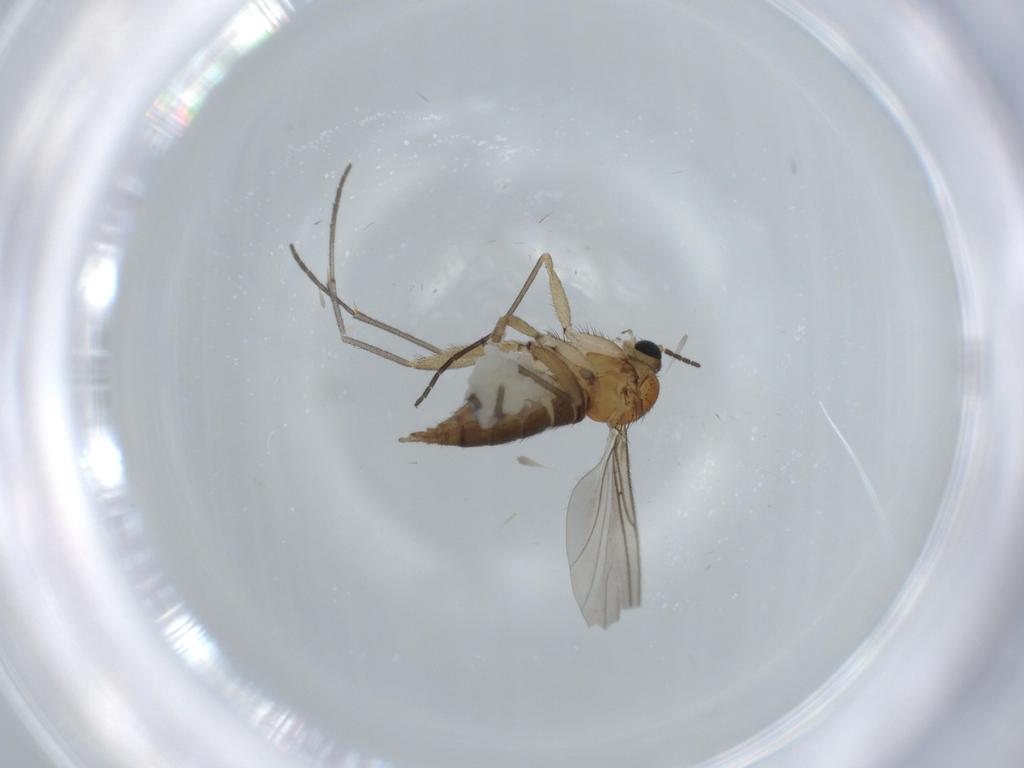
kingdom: Animalia
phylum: Arthropoda
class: Insecta
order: Diptera
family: Sciaridae
